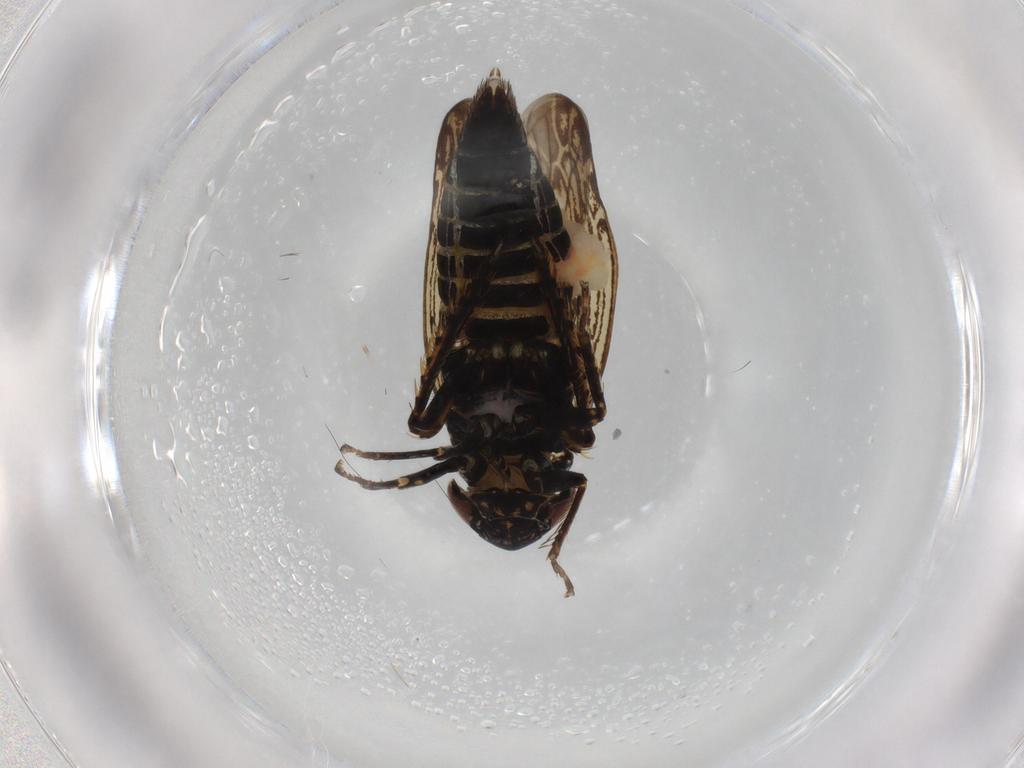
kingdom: Animalia
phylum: Arthropoda
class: Insecta
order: Hemiptera
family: Cicadellidae
